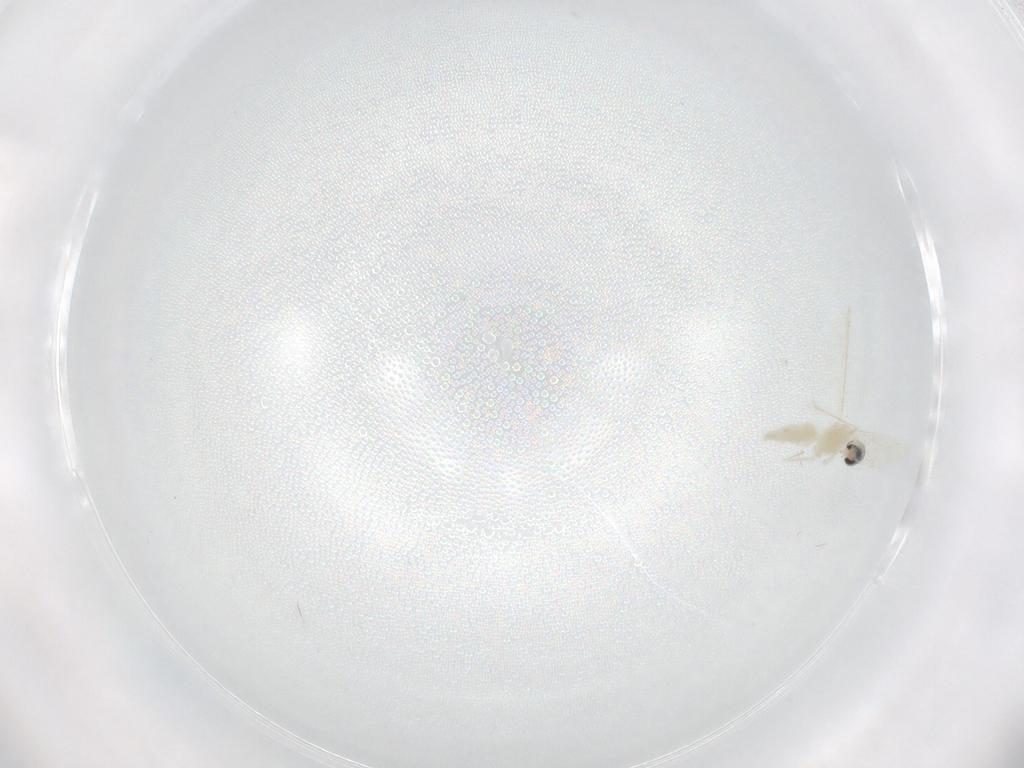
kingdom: Animalia
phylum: Arthropoda
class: Insecta
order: Diptera
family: Cecidomyiidae
